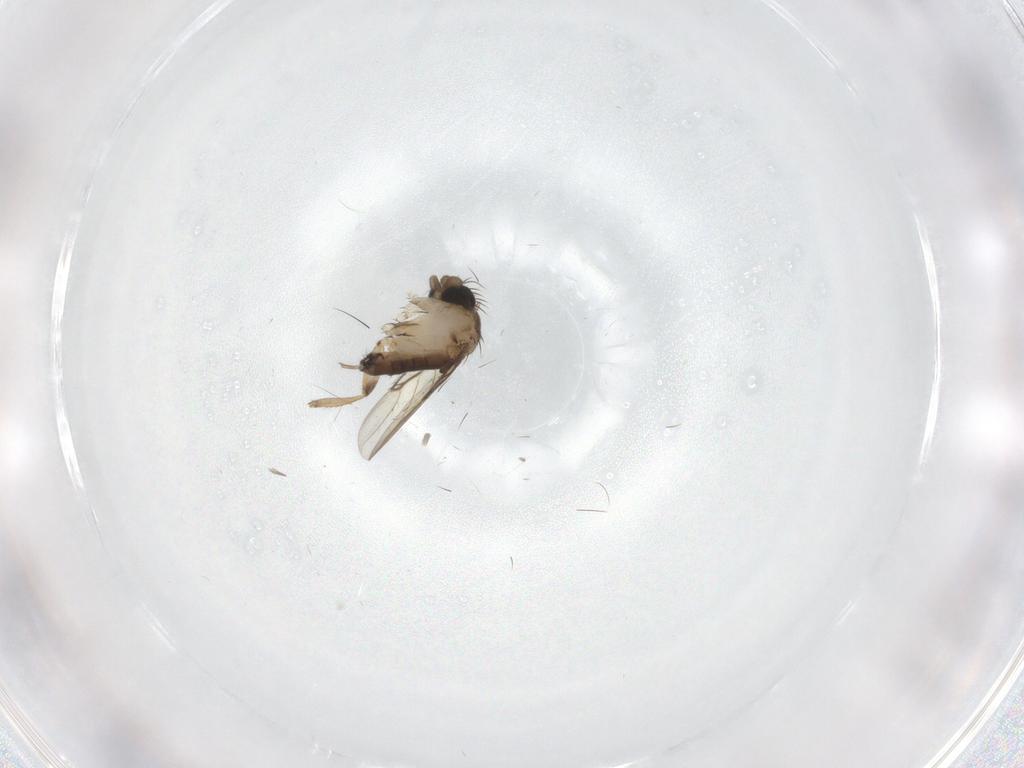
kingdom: Animalia
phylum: Arthropoda
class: Insecta
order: Diptera
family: Phoridae
